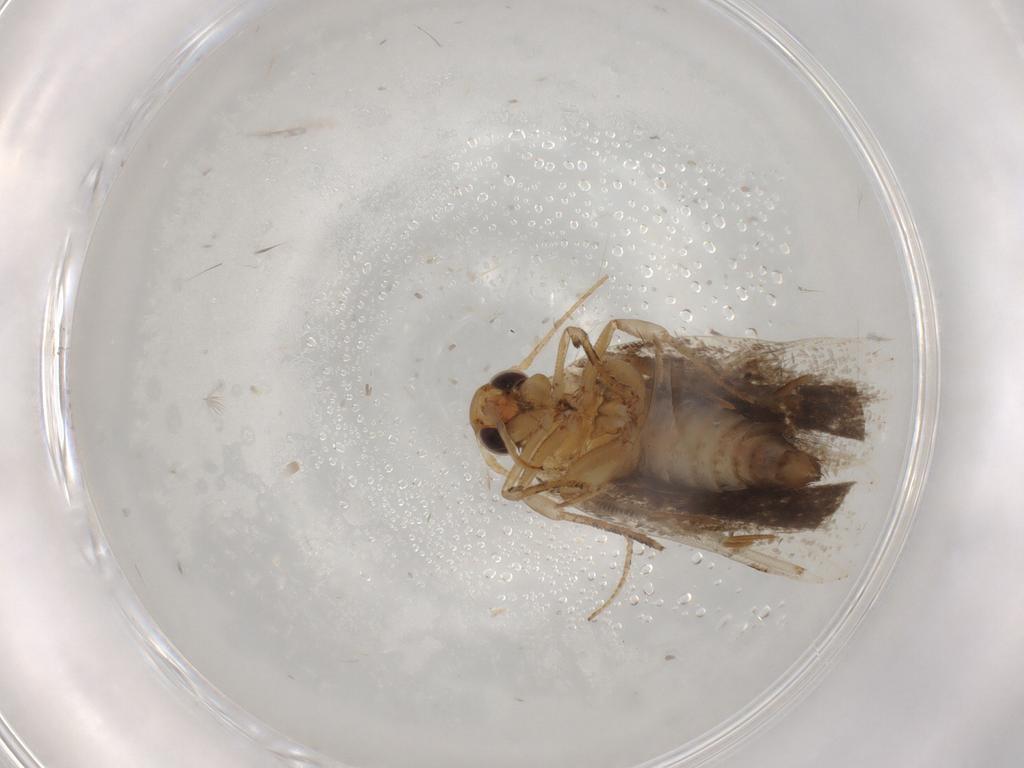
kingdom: Animalia
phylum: Arthropoda
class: Insecta
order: Lepidoptera
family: Gelechiidae
